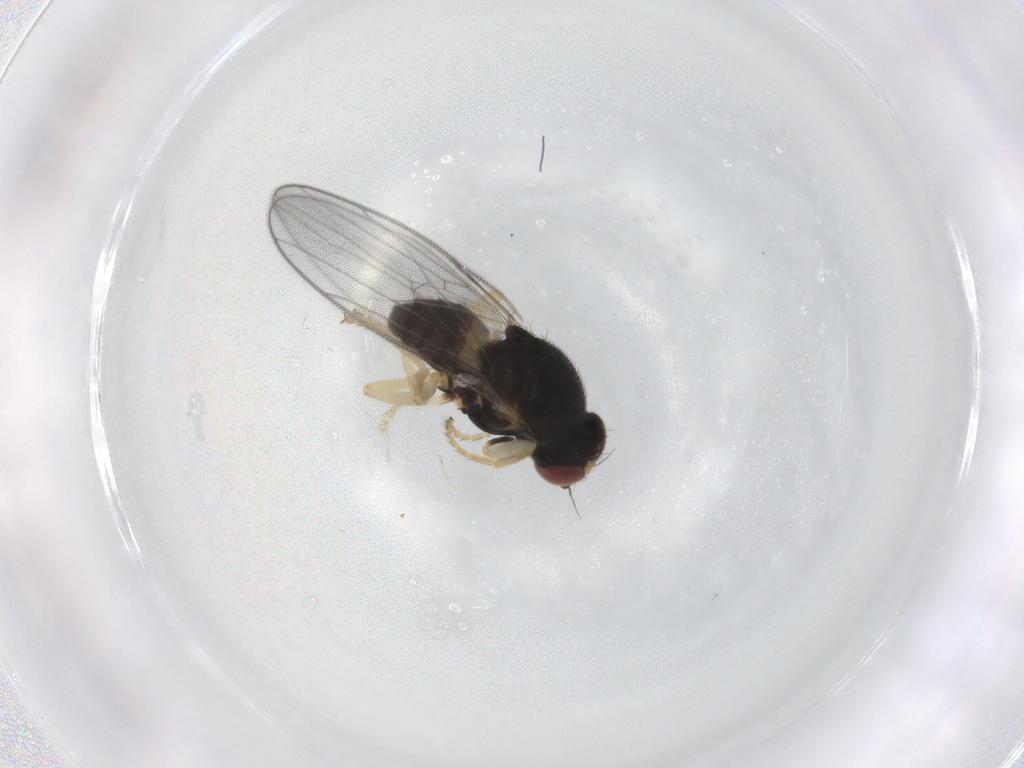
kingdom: Animalia
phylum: Arthropoda
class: Insecta
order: Diptera
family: Chloropidae
